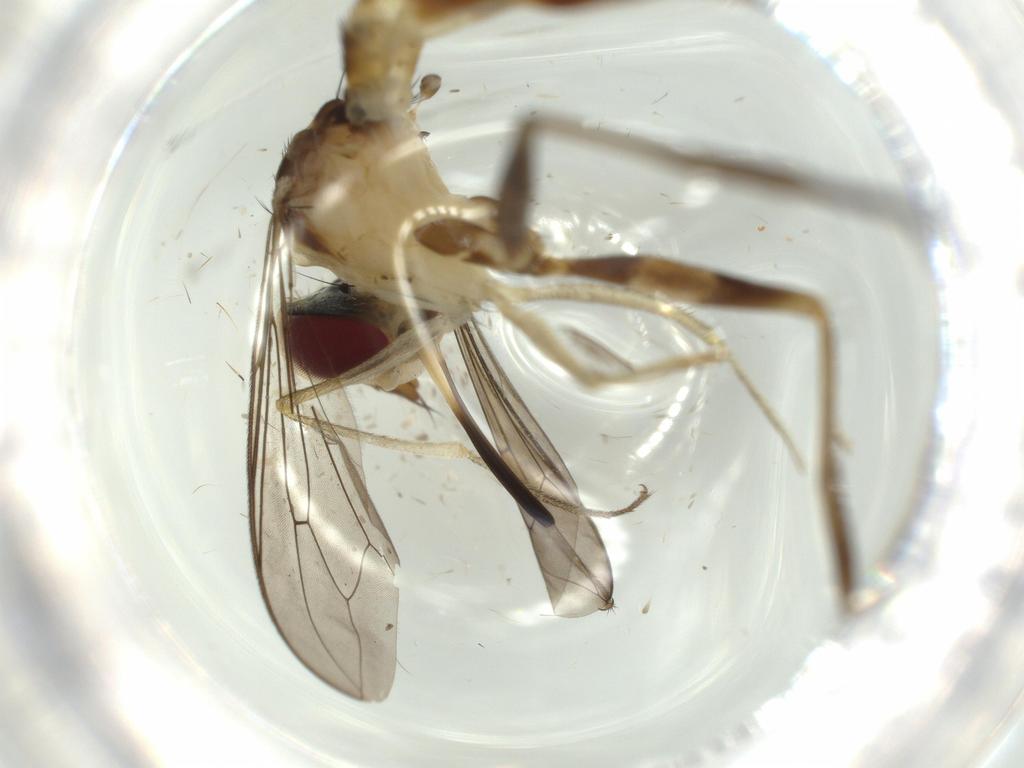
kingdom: Animalia
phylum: Arthropoda
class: Insecta
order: Diptera
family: Conopidae
